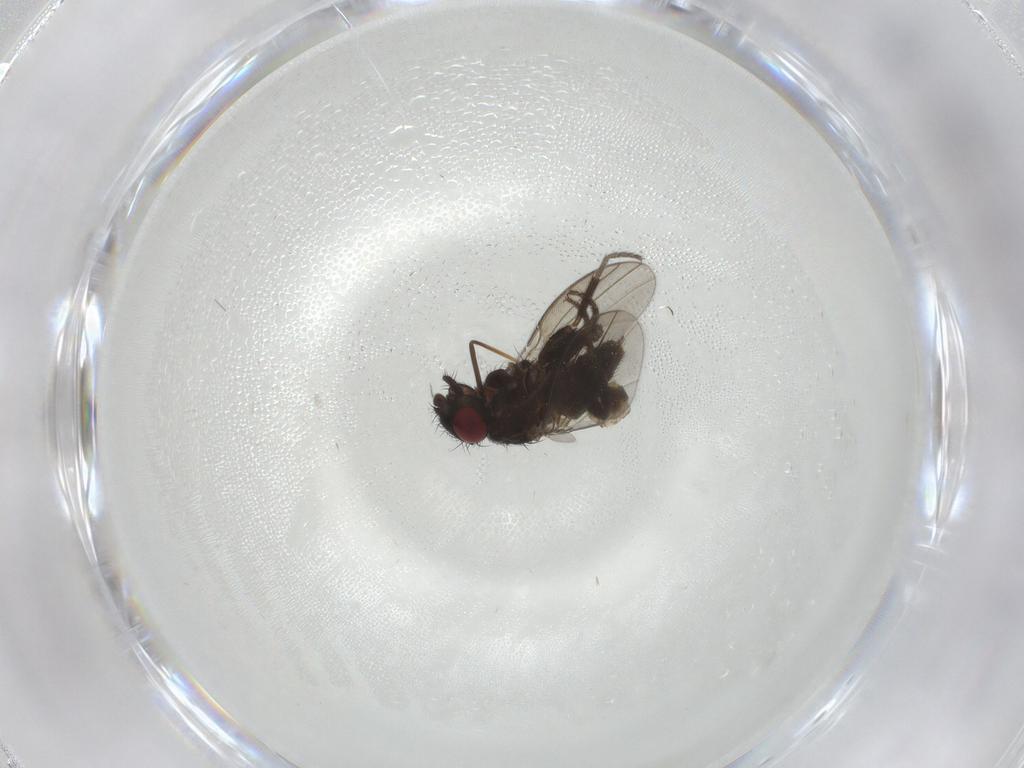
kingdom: Animalia
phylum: Arthropoda
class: Insecta
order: Diptera
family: Milichiidae
